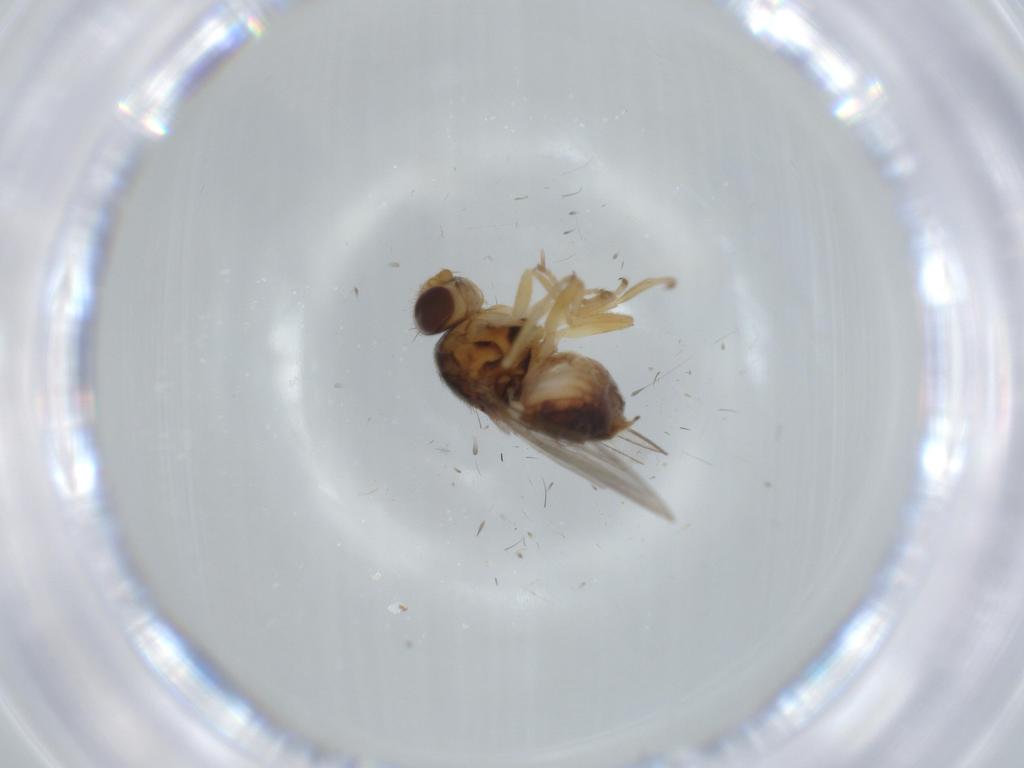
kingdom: Animalia
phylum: Arthropoda
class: Insecta
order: Diptera
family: Chloropidae
